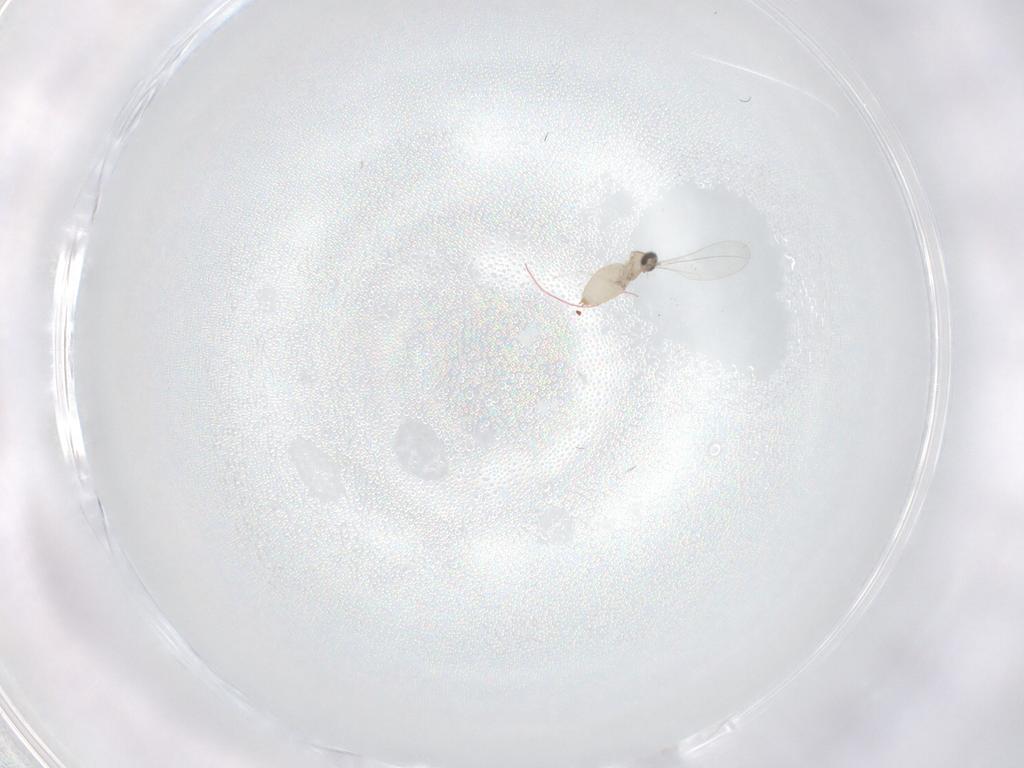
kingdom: Animalia
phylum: Arthropoda
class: Insecta
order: Diptera
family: Cecidomyiidae
